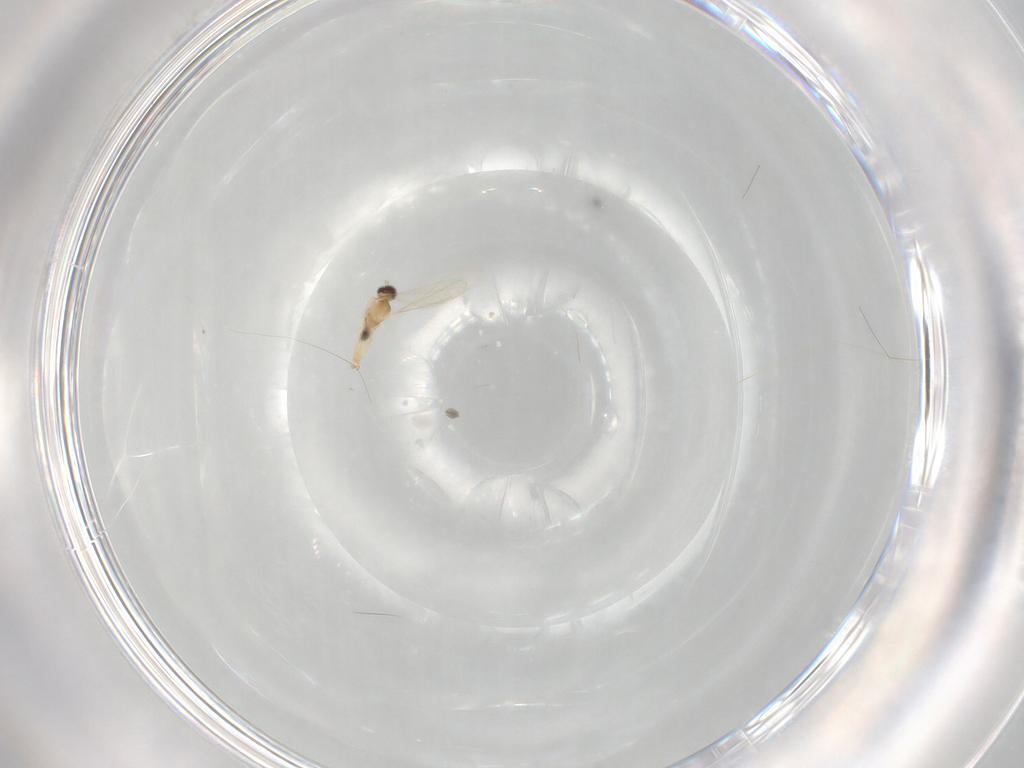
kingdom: Animalia
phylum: Arthropoda
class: Insecta
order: Diptera
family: Cecidomyiidae
